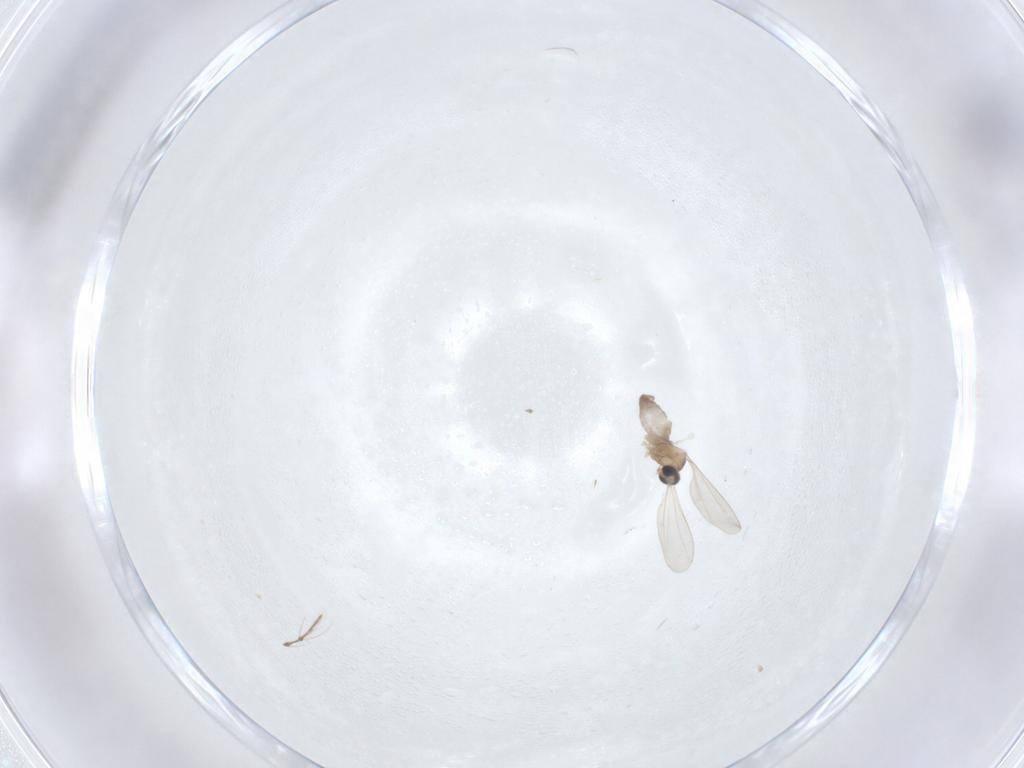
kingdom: Animalia
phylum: Arthropoda
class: Insecta
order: Diptera
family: Cecidomyiidae
